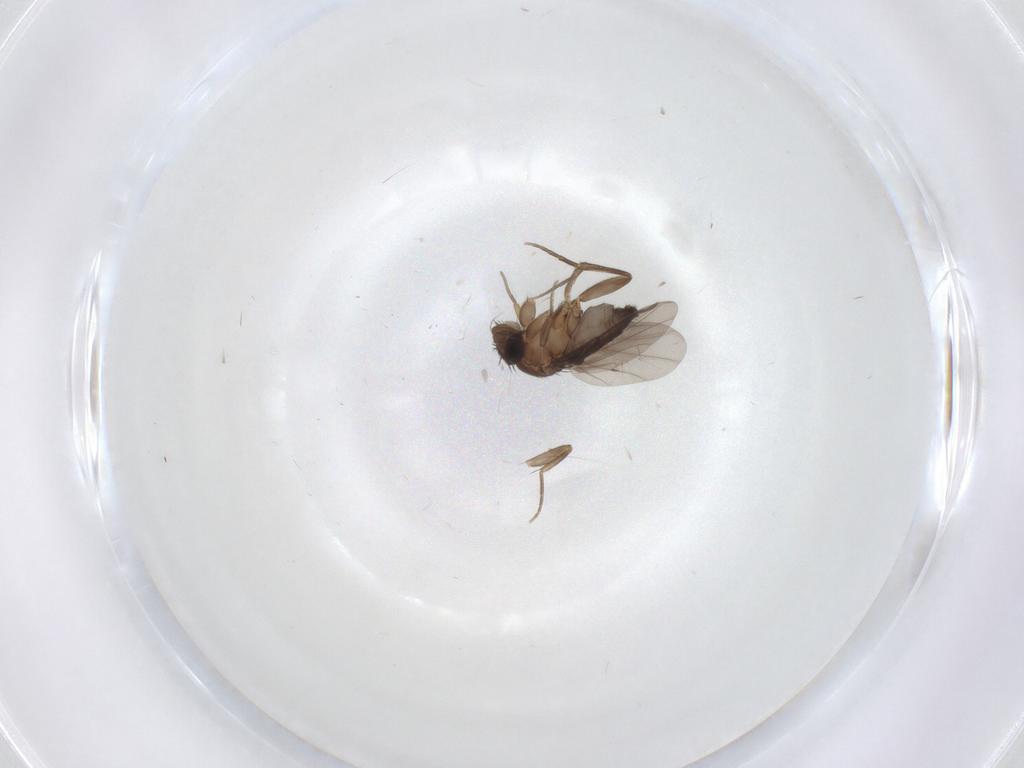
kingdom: Animalia
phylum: Arthropoda
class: Insecta
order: Diptera
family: Phoridae
